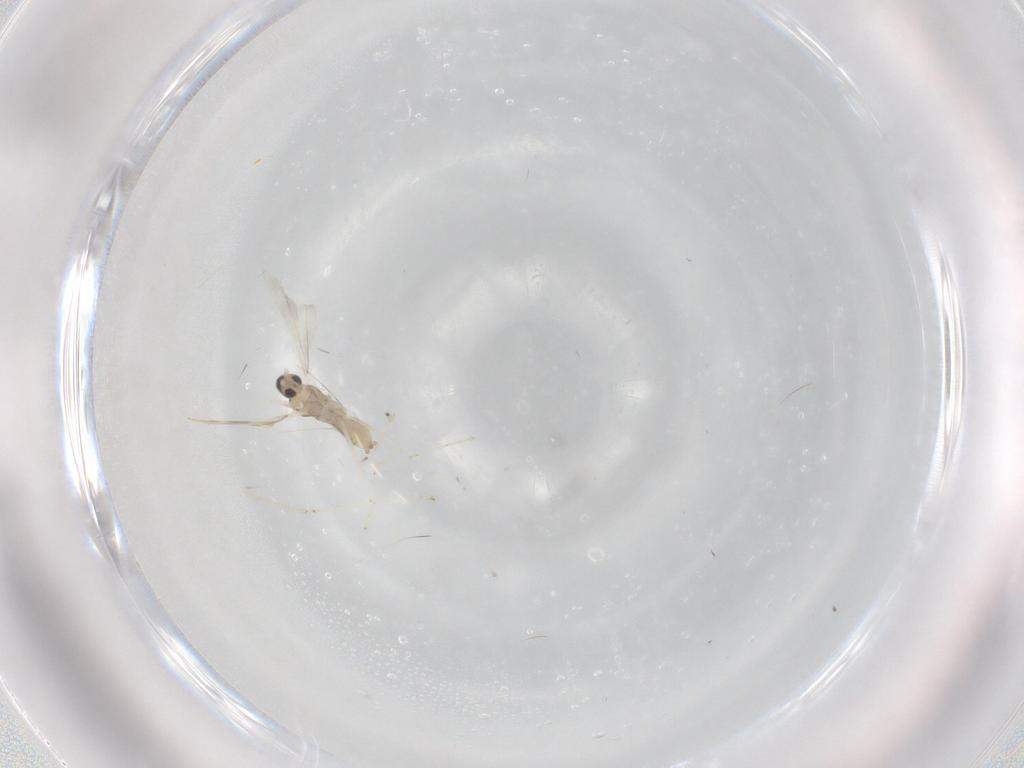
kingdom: Animalia
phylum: Arthropoda
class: Insecta
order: Diptera
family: Cecidomyiidae
